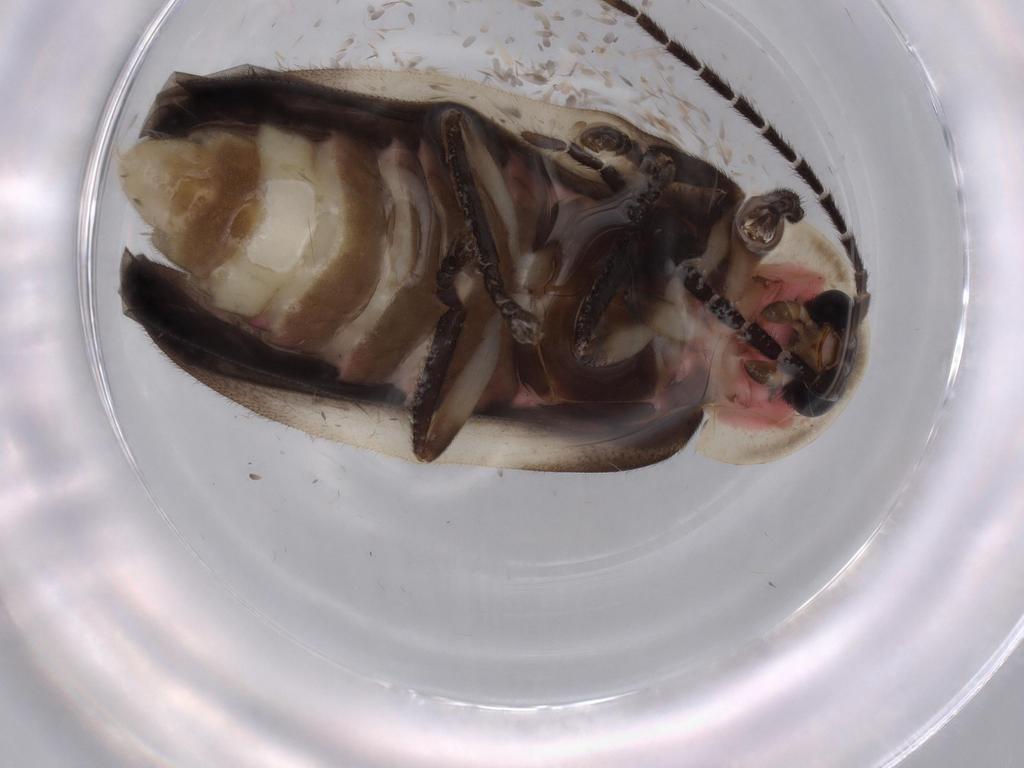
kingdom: Animalia
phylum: Arthropoda
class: Insecta
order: Coleoptera
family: Lampyridae
